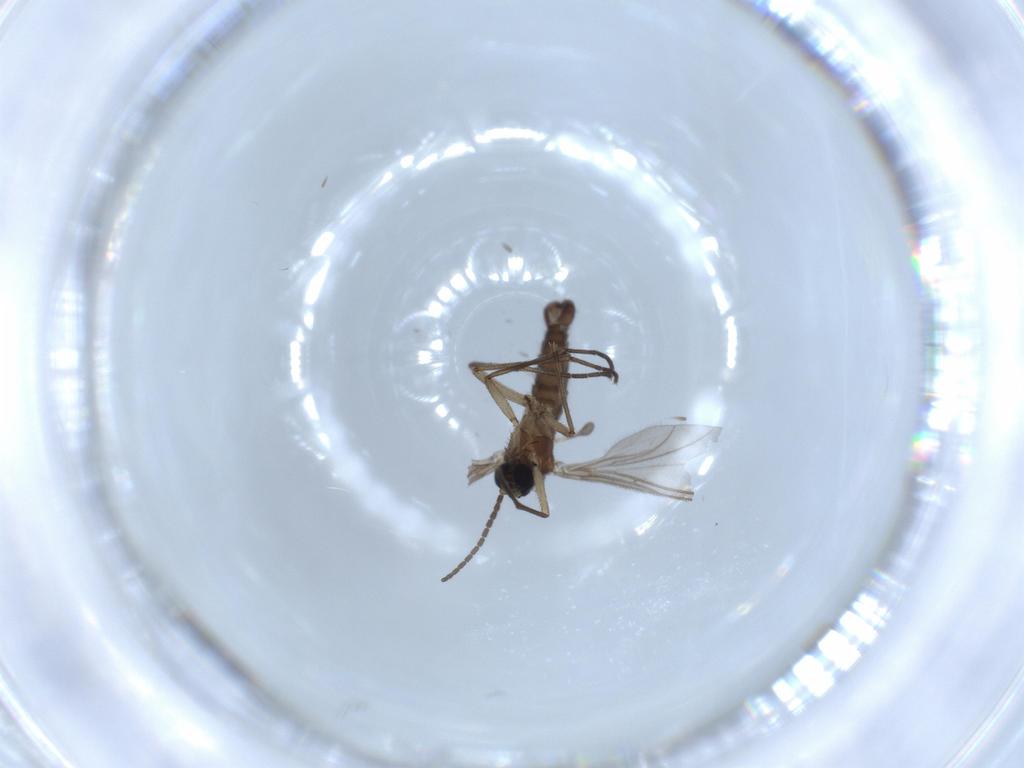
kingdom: Animalia
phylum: Arthropoda
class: Insecta
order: Diptera
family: Sciaridae
